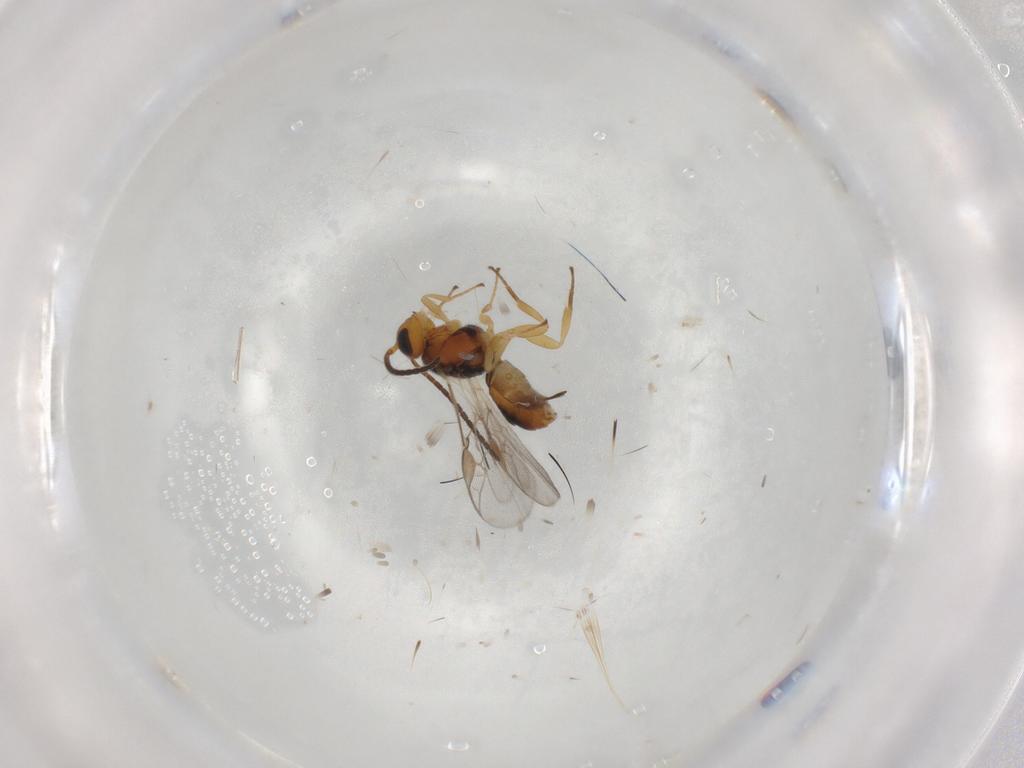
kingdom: Animalia
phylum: Arthropoda
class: Insecta
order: Hymenoptera
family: Braconidae
